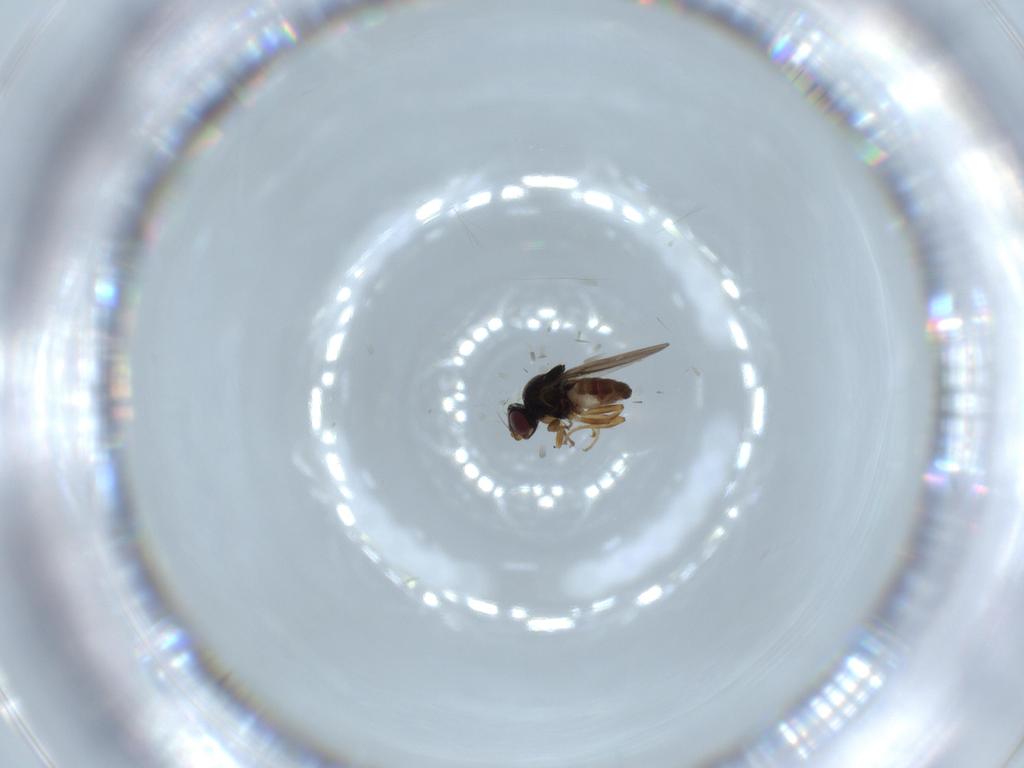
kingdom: Animalia
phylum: Arthropoda
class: Insecta
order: Diptera
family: Chloropidae
